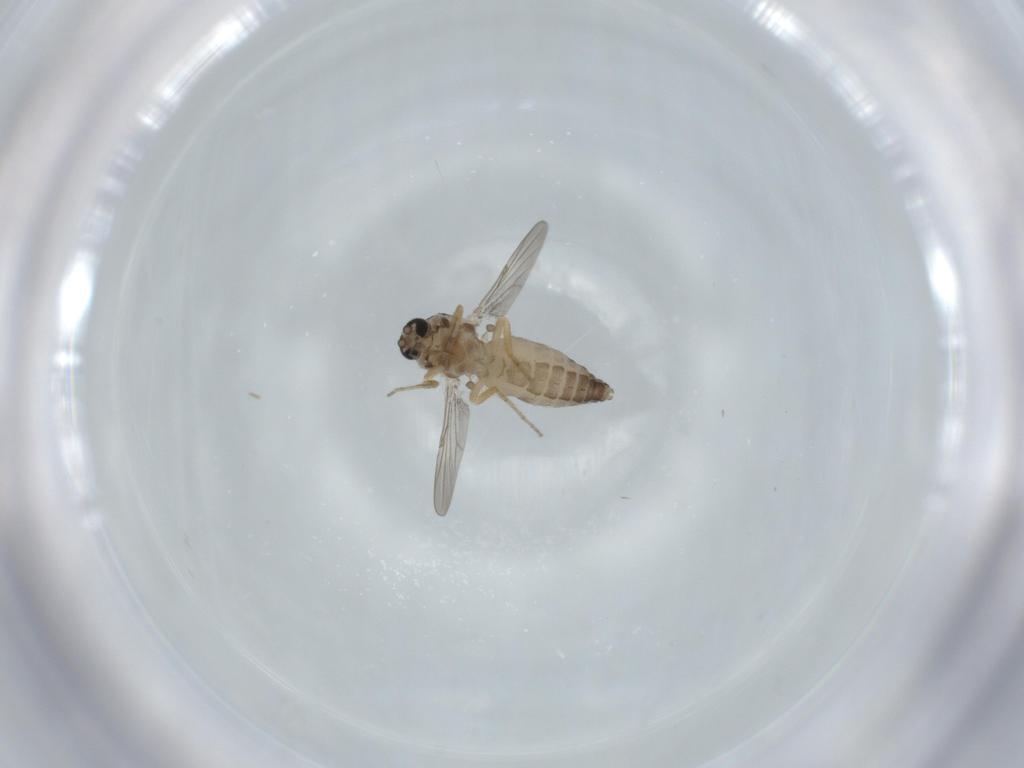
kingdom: Animalia
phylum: Arthropoda
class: Insecta
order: Diptera
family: Ceratopogonidae
